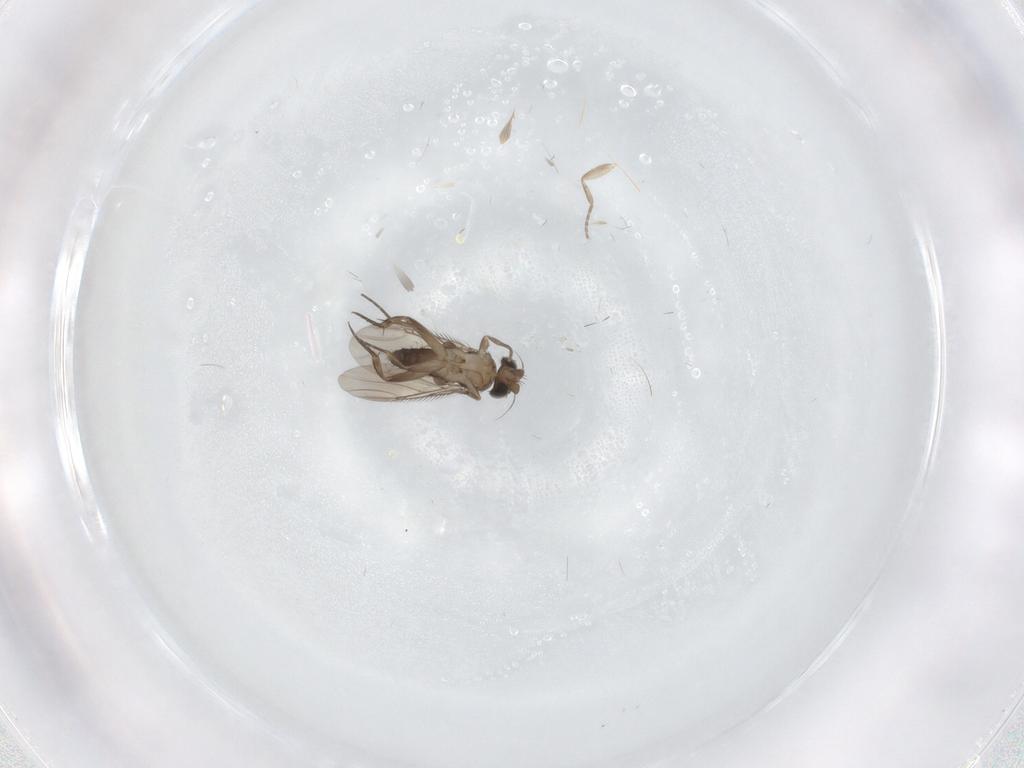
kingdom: Animalia
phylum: Arthropoda
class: Insecta
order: Diptera
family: Phoridae
